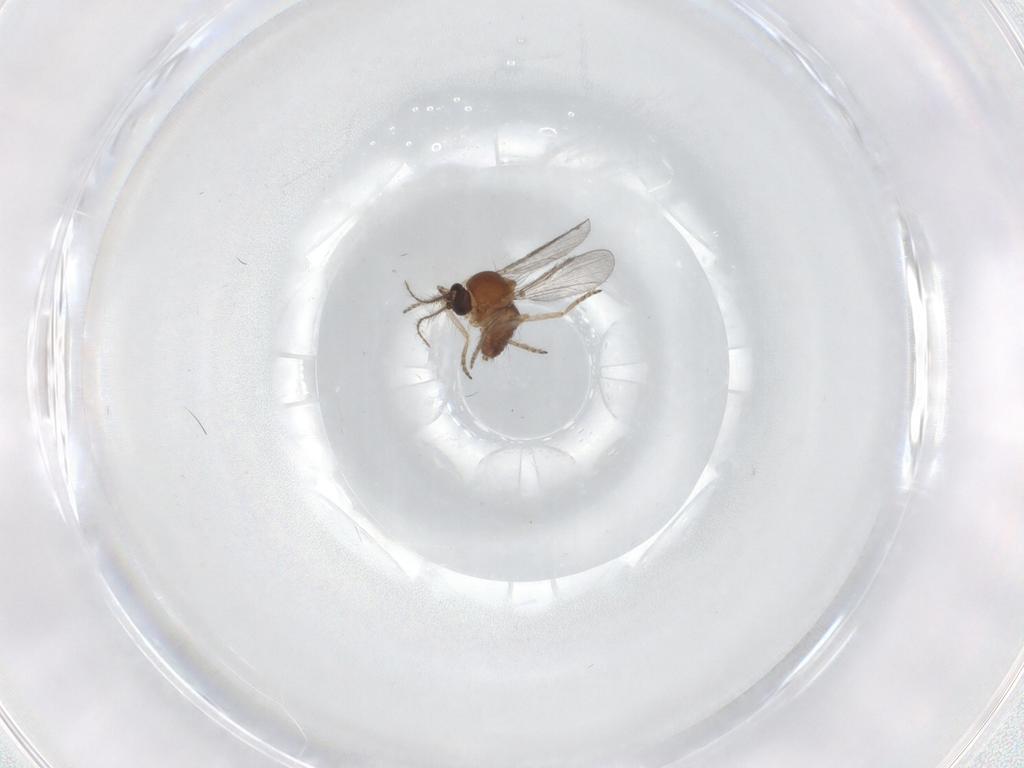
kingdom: Animalia
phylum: Arthropoda
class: Insecta
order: Diptera
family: Ceratopogonidae
